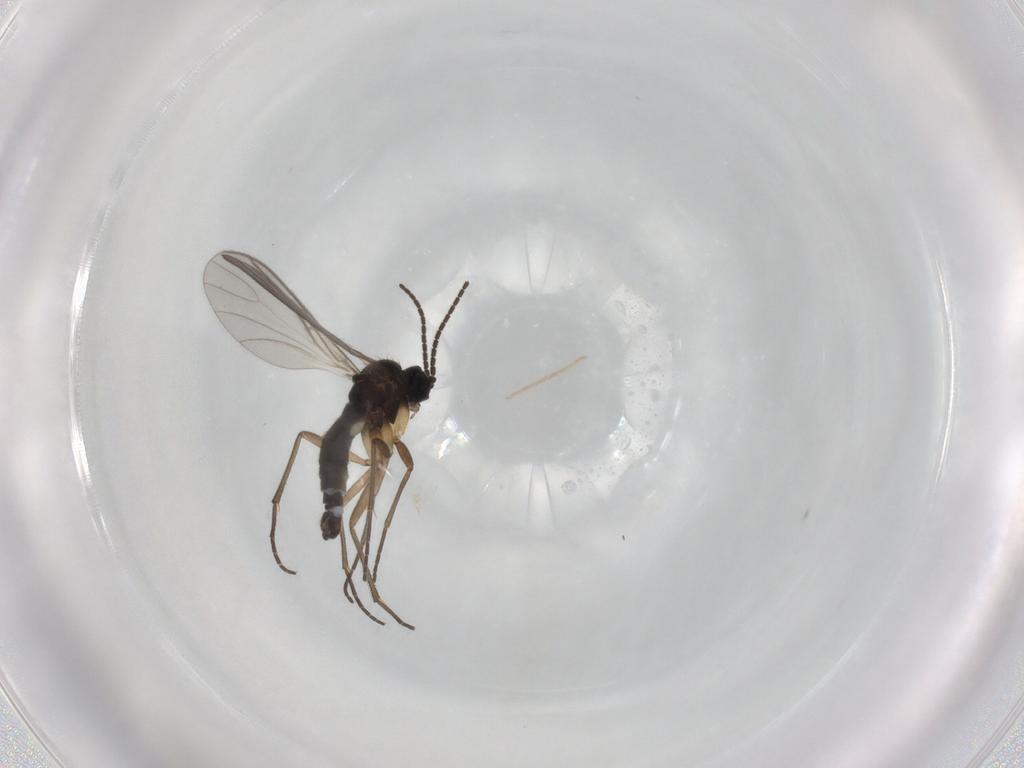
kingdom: Animalia
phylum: Arthropoda
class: Insecta
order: Diptera
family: Sciaridae
